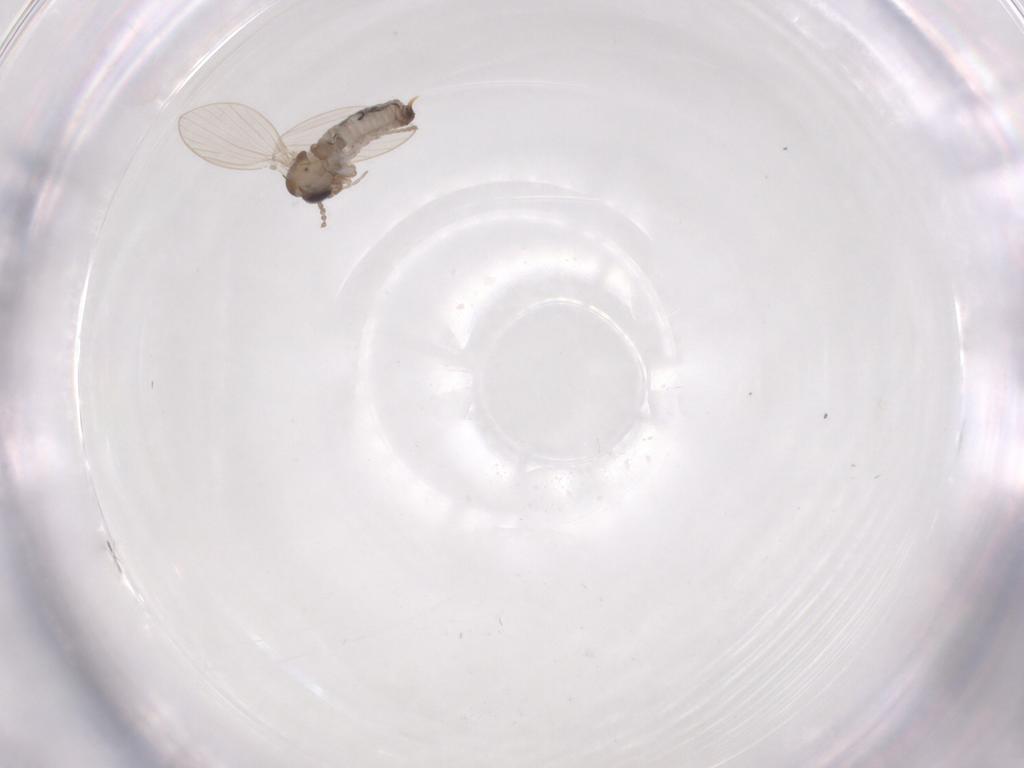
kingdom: Animalia
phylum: Arthropoda
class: Insecta
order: Diptera
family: Psychodidae
